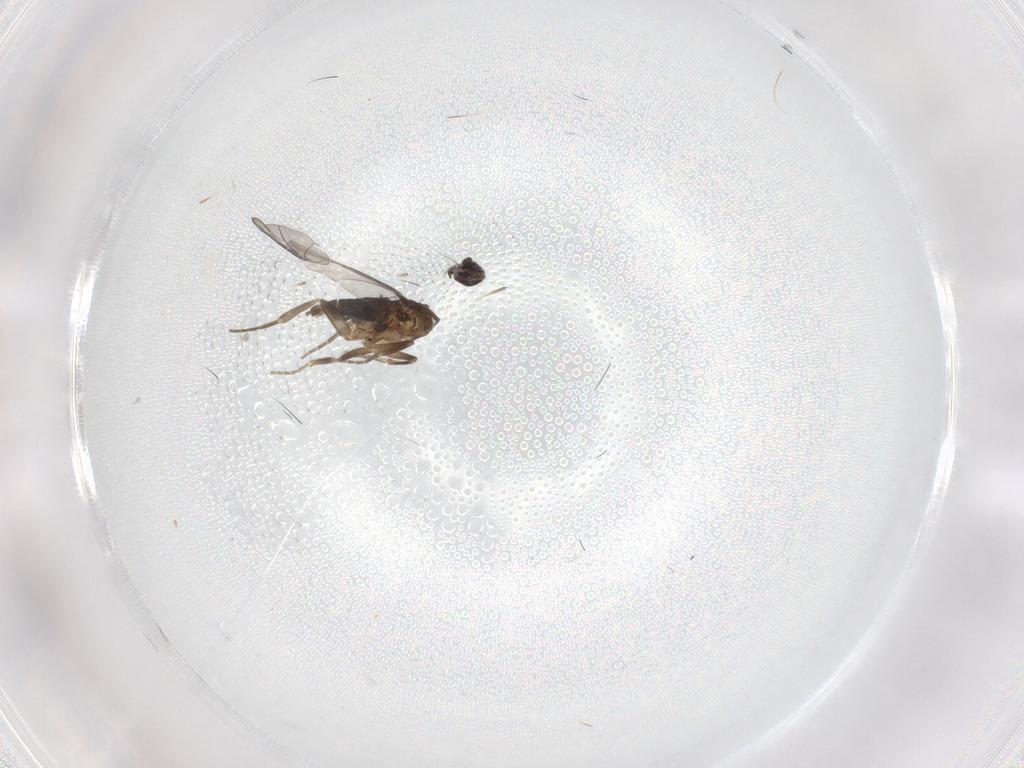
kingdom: Animalia
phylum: Arthropoda
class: Insecta
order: Diptera
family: Phoridae
